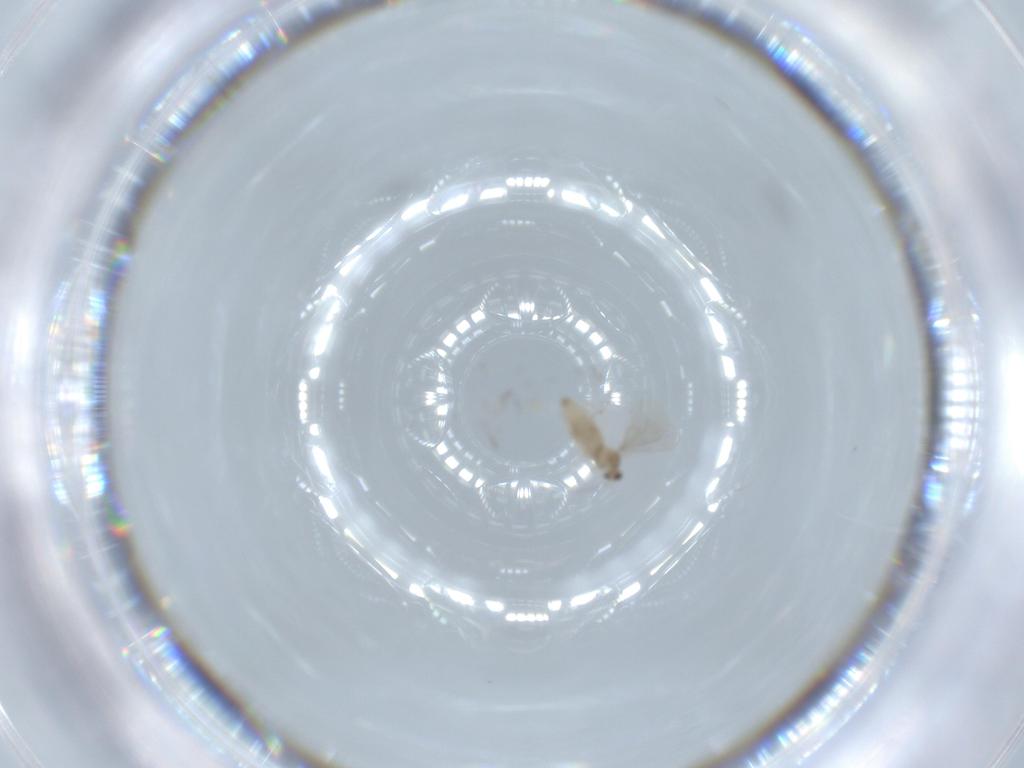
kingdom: Animalia
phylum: Arthropoda
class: Insecta
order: Diptera
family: Cecidomyiidae
